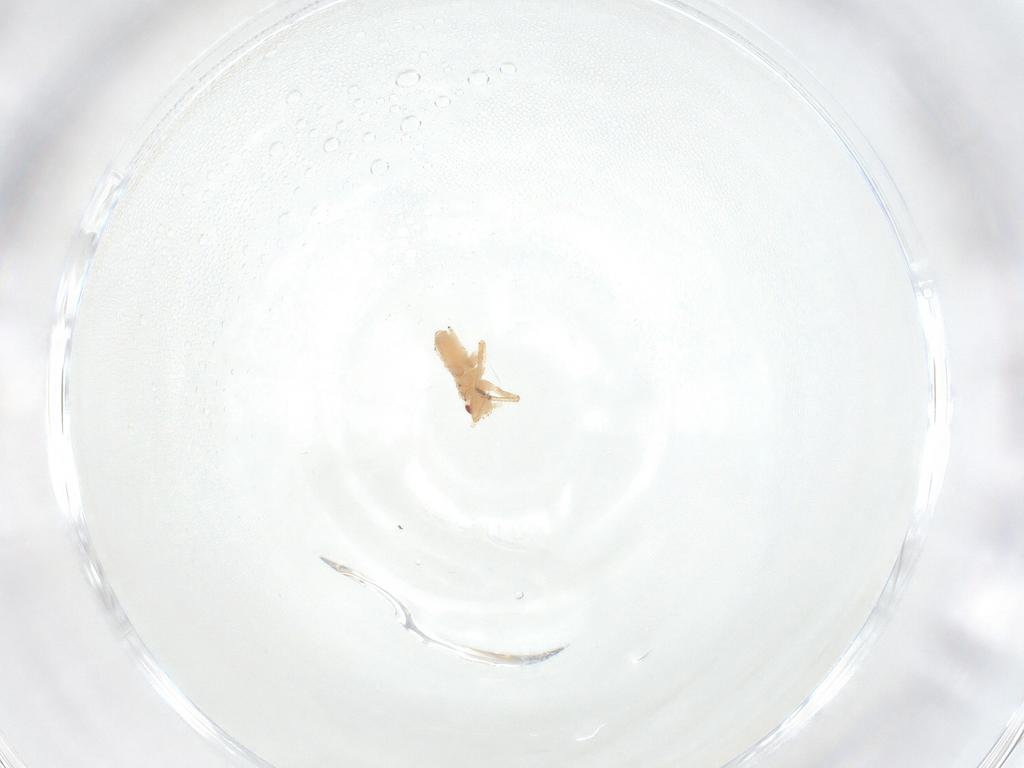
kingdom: Animalia
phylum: Arthropoda
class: Insecta
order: Hemiptera
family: Aphididae
